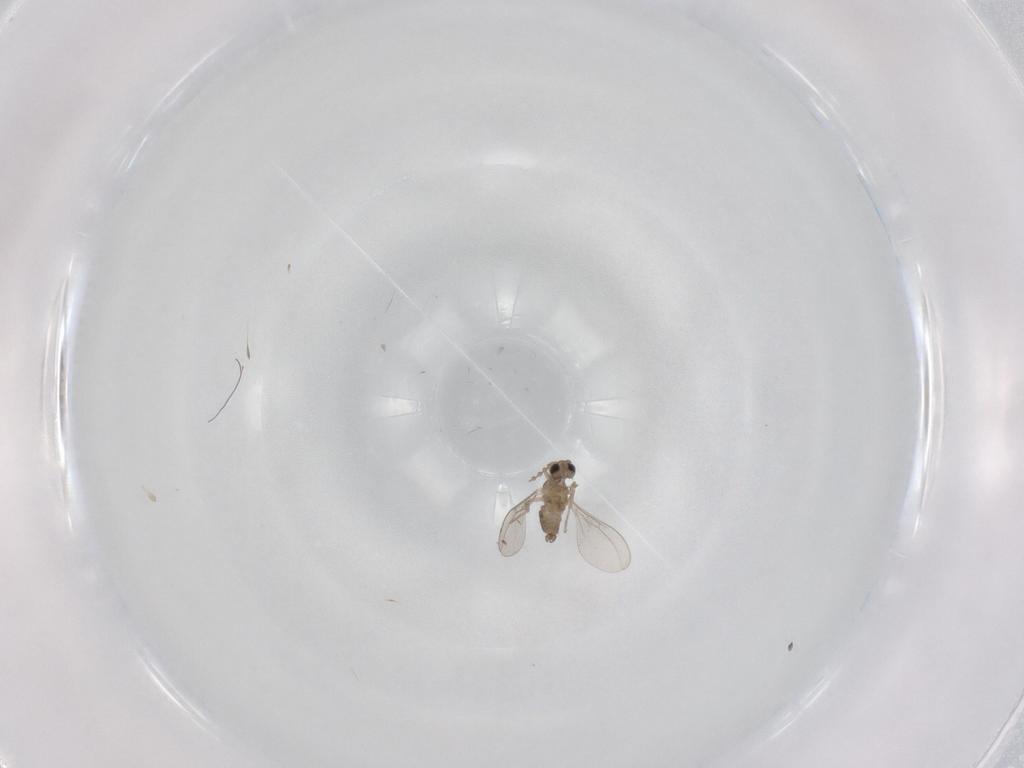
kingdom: Animalia
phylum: Arthropoda
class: Insecta
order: Diptera
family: Cecidomyiidae
